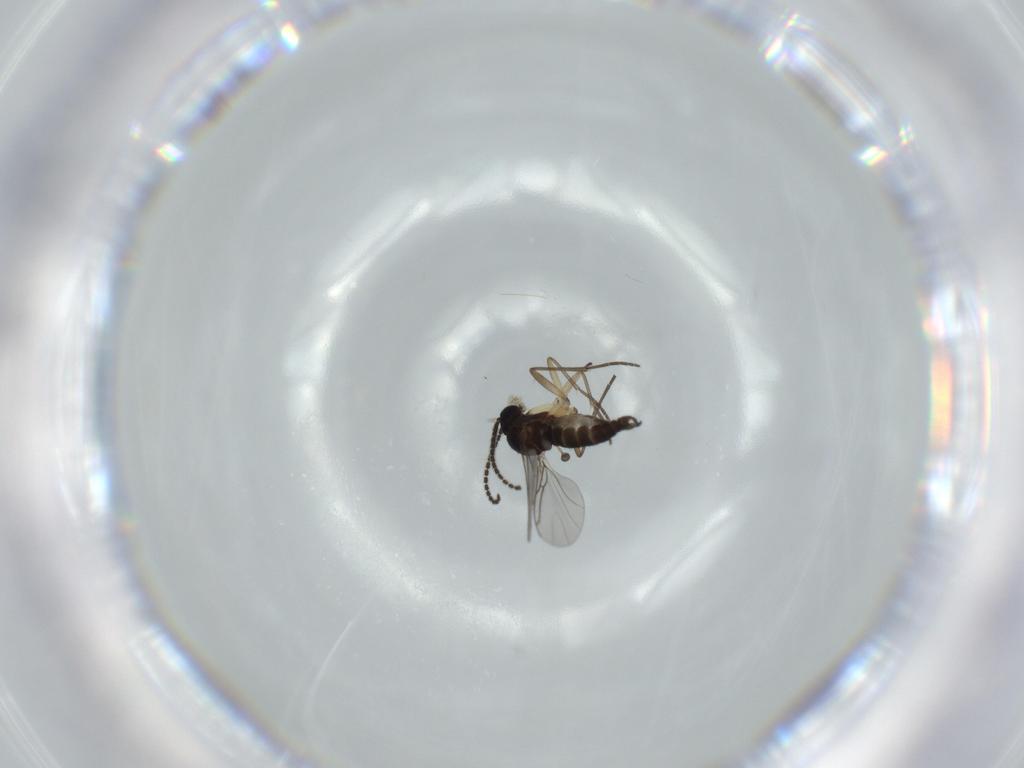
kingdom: Animalia
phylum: Arthropoda
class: Insecta
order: Diptera
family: Sciaridae
